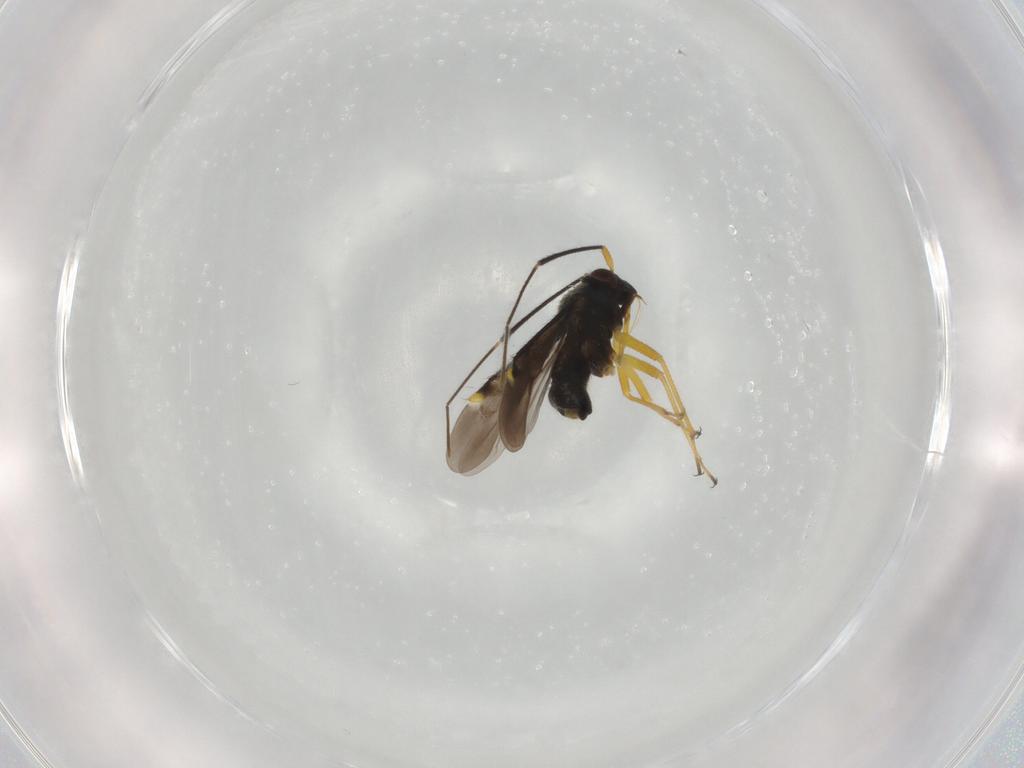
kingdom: Animalia
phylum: Arthropoda
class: Insecta
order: Hemiptera
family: Miridae
